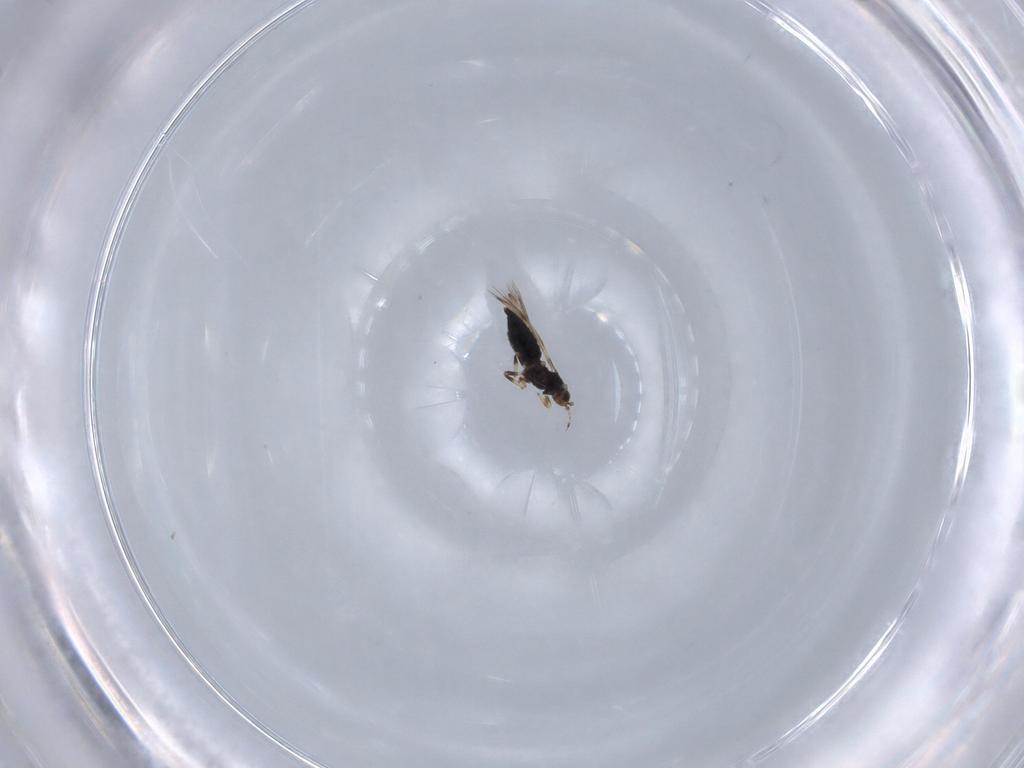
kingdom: Animalia
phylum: Arthropoda
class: Insecta
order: Thysanoptera
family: Thripidae
